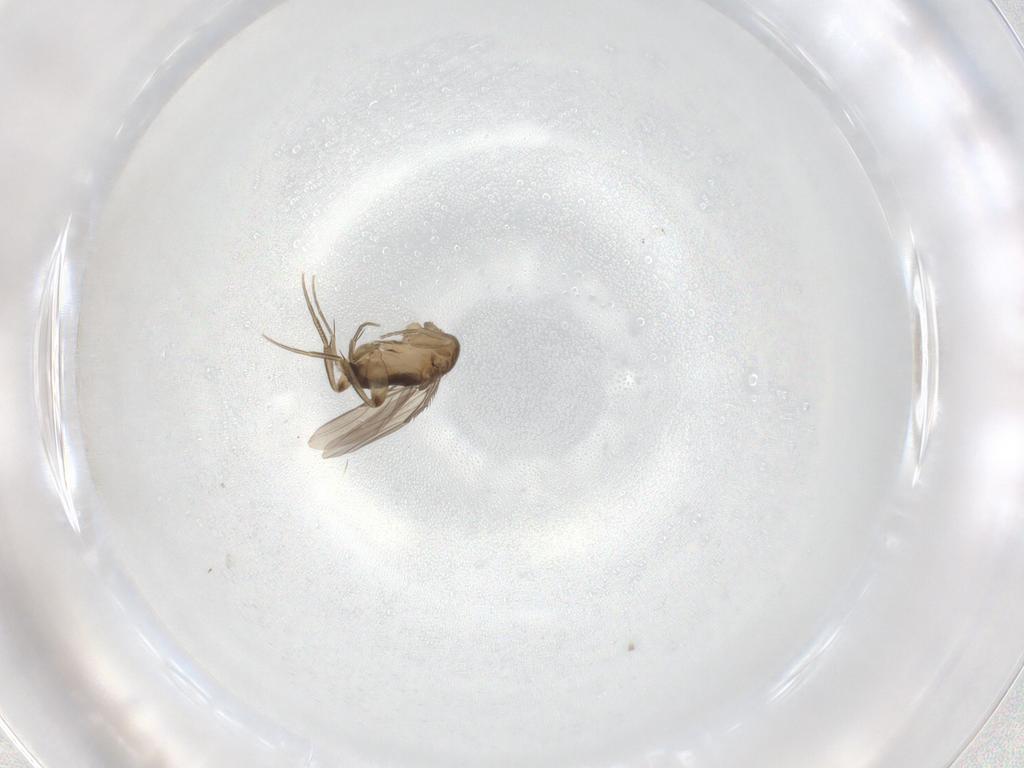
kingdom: Animalia
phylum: Arthropoda
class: Insecta
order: Diptera
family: Phoridae
